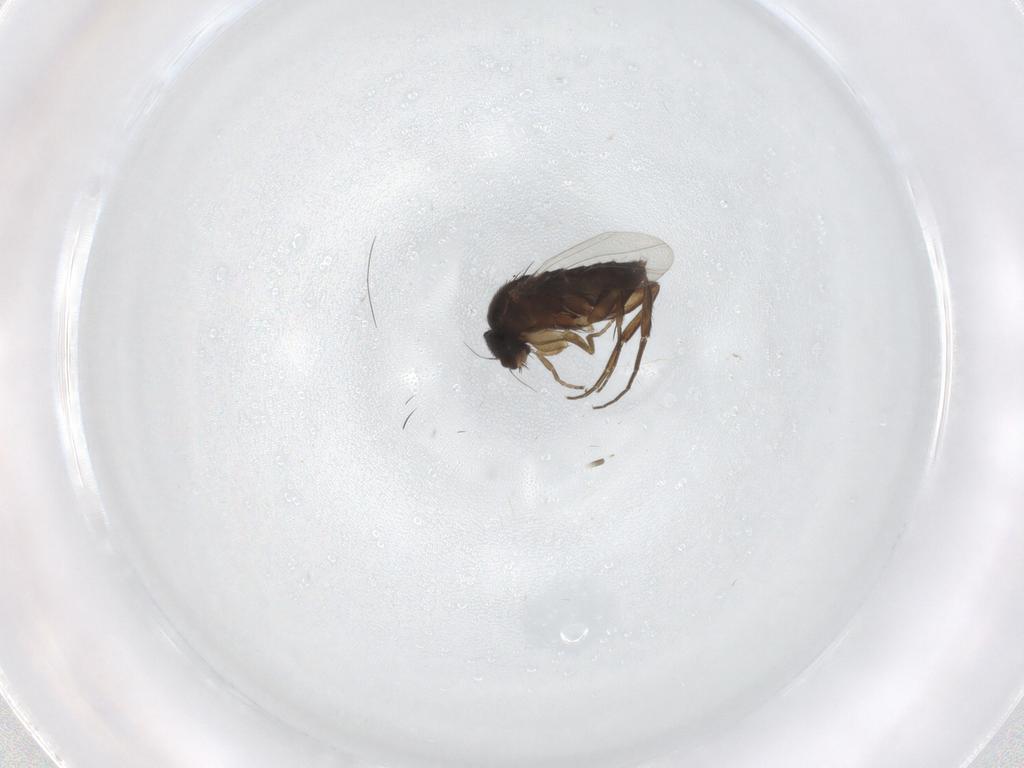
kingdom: Animalia
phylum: Arthropoda
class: Insecta
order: Diptera
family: Phoridae
